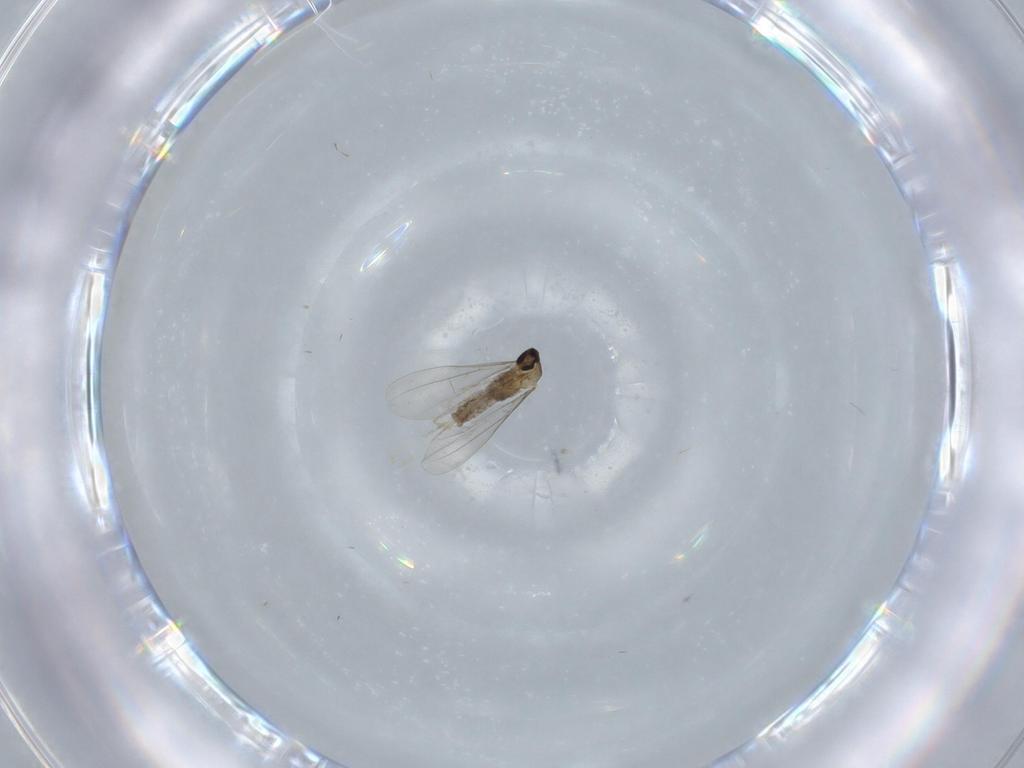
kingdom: Animalia
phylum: Arthropoda
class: Insecta
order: Diptera
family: Cecidomyiidae
